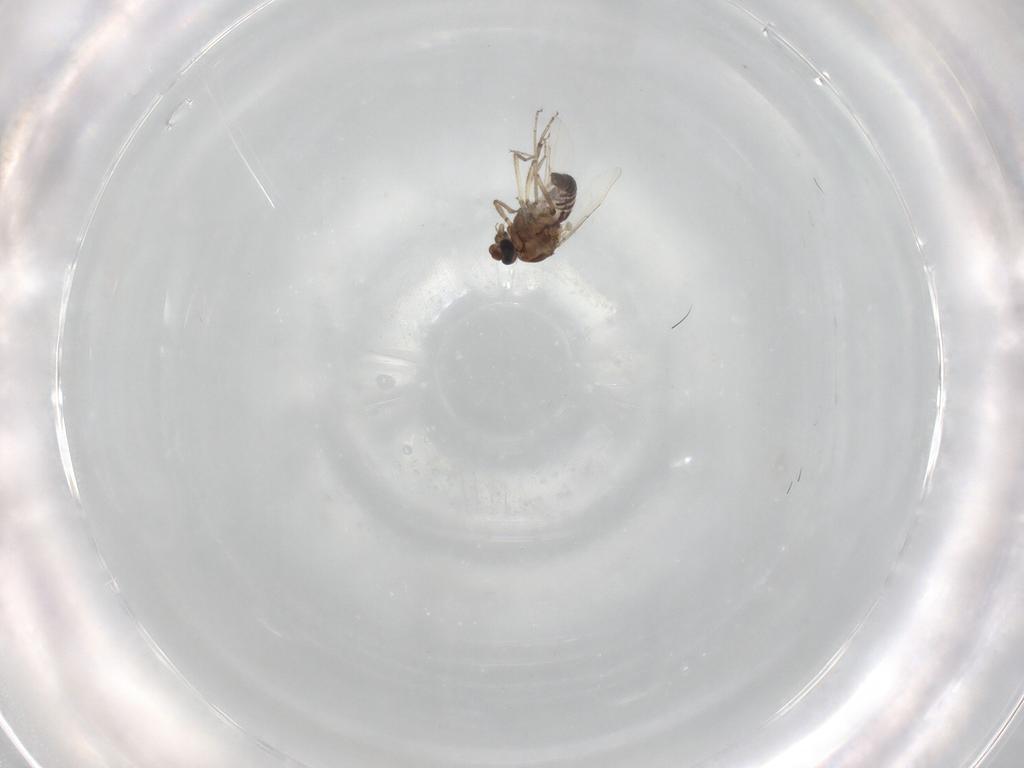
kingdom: Animalia
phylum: Arthropoda
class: Insecta
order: Diptera
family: Ceratopogonidae
